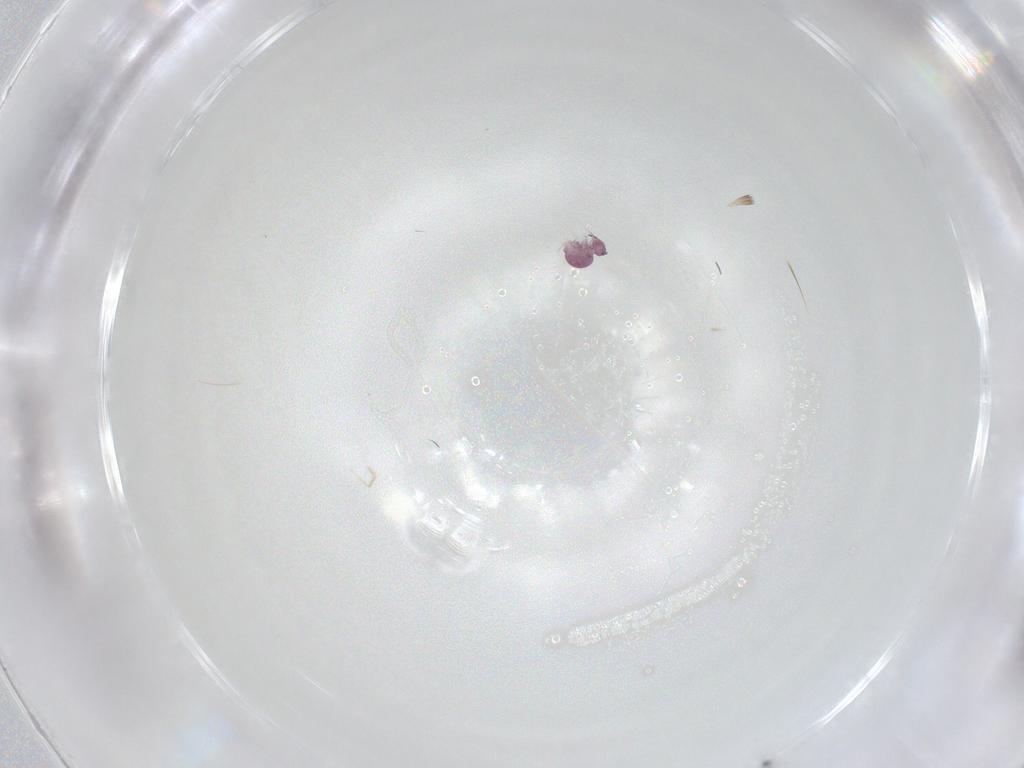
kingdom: Animalia
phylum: Arthropoda
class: Collembola
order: Symphypleona
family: Sminthurididae
